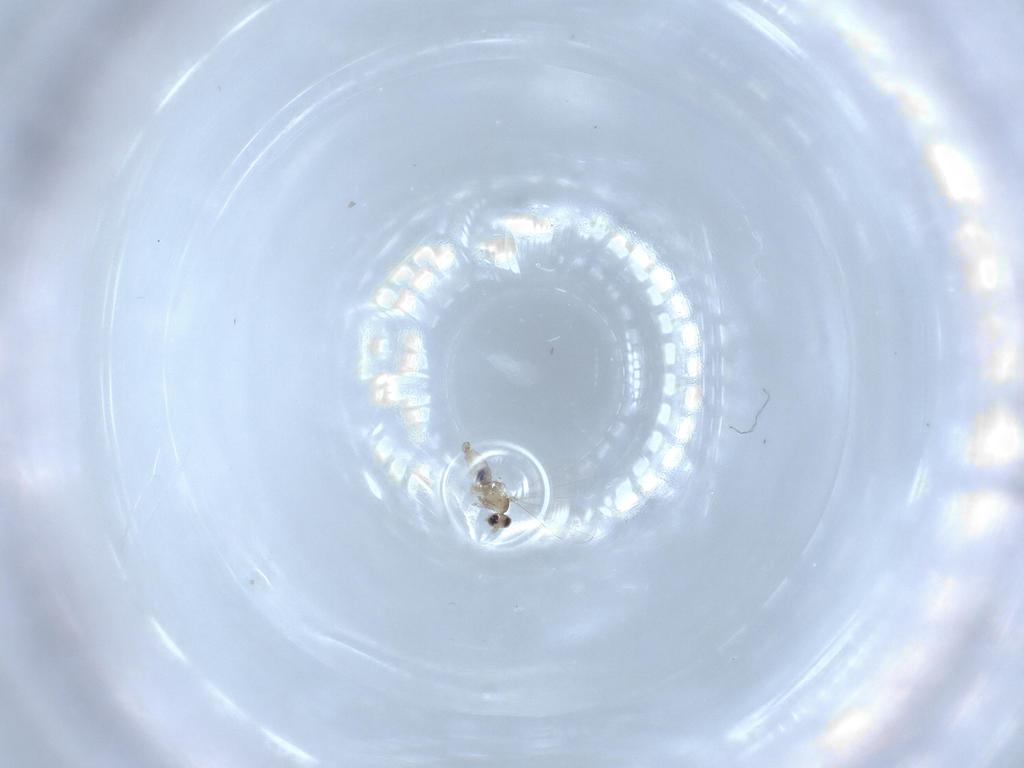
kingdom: Animalia
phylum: Arthropoda
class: Insecta
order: Diptera
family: Cecidomyiidae
